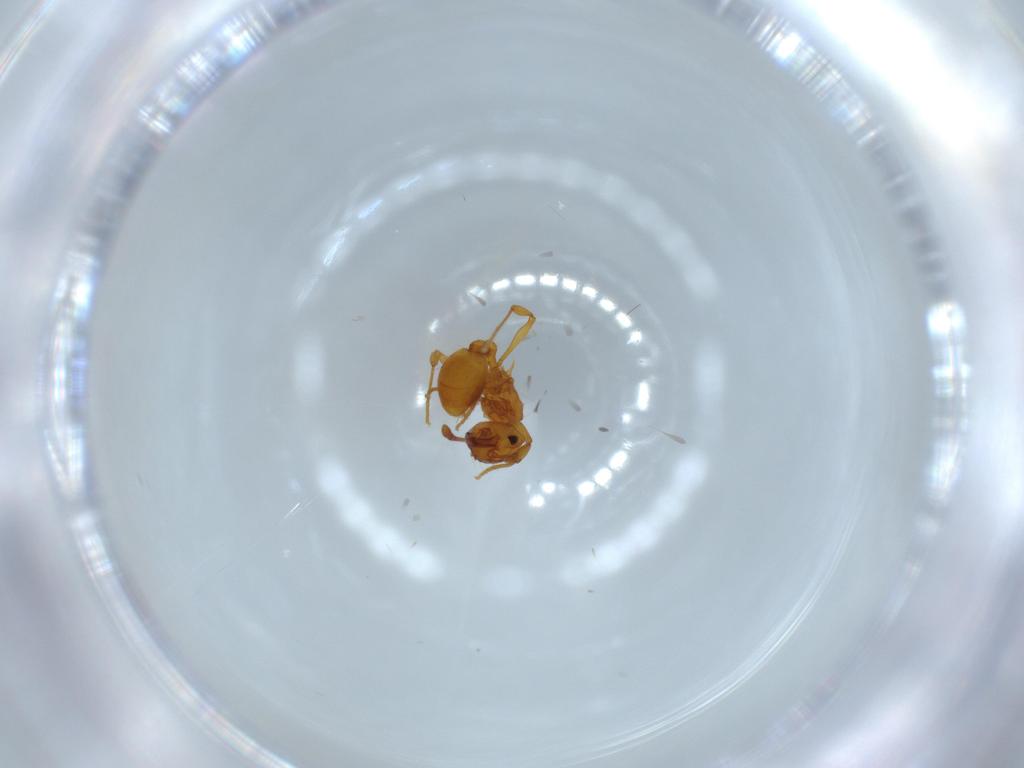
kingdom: Animalia
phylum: Arthropoda
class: Insecta
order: Hymenoptera
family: Formicidae
